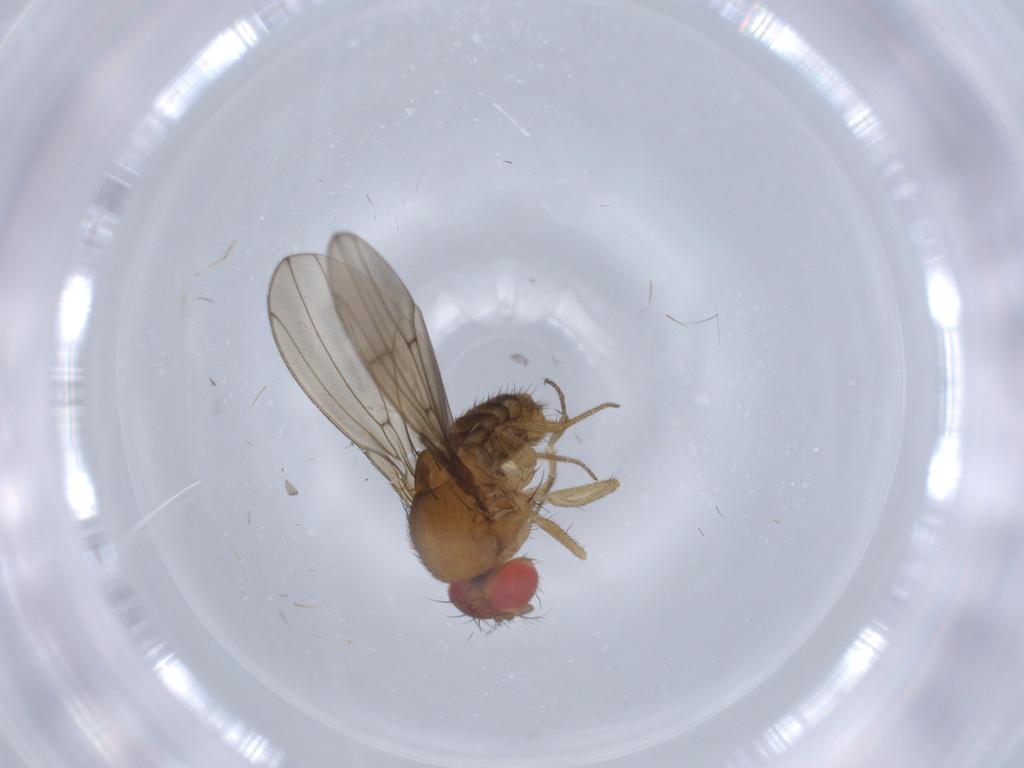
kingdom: Animalia
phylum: Arthropoda
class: Insecta
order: Diptera
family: Drosophilidae
